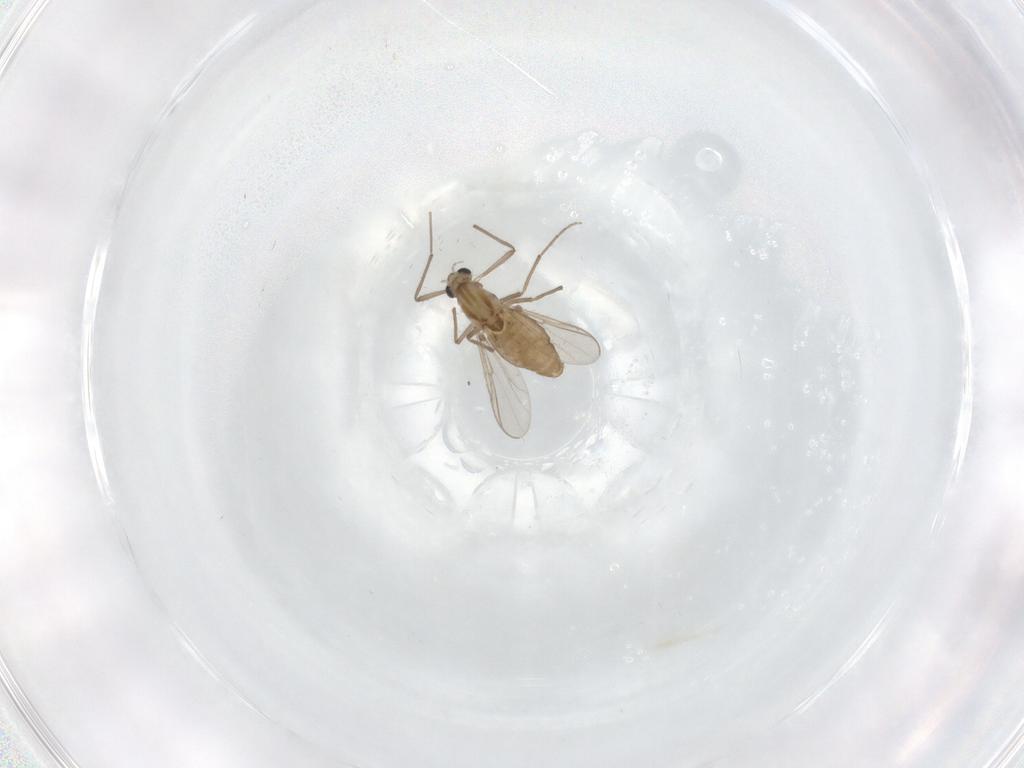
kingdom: Animalia
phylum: Arthropoda
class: Insecta
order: Diptera
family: Chironomidae
